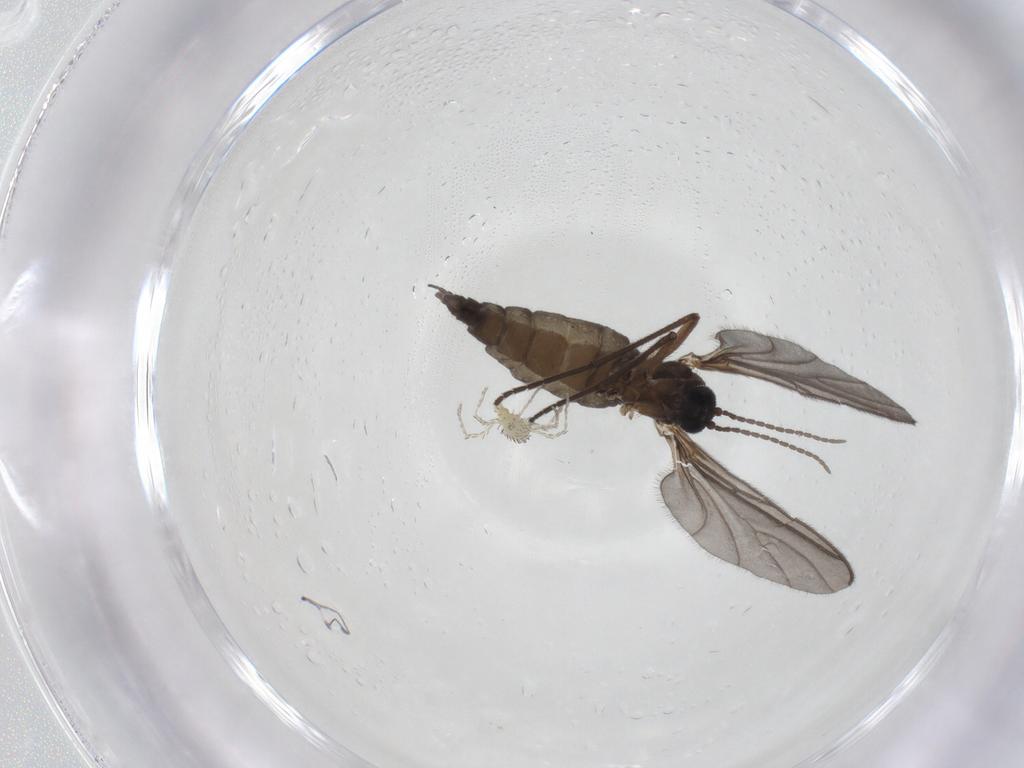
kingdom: Animalia
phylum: Arthropoda
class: Insecta
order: Diptera
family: Sciaridae
